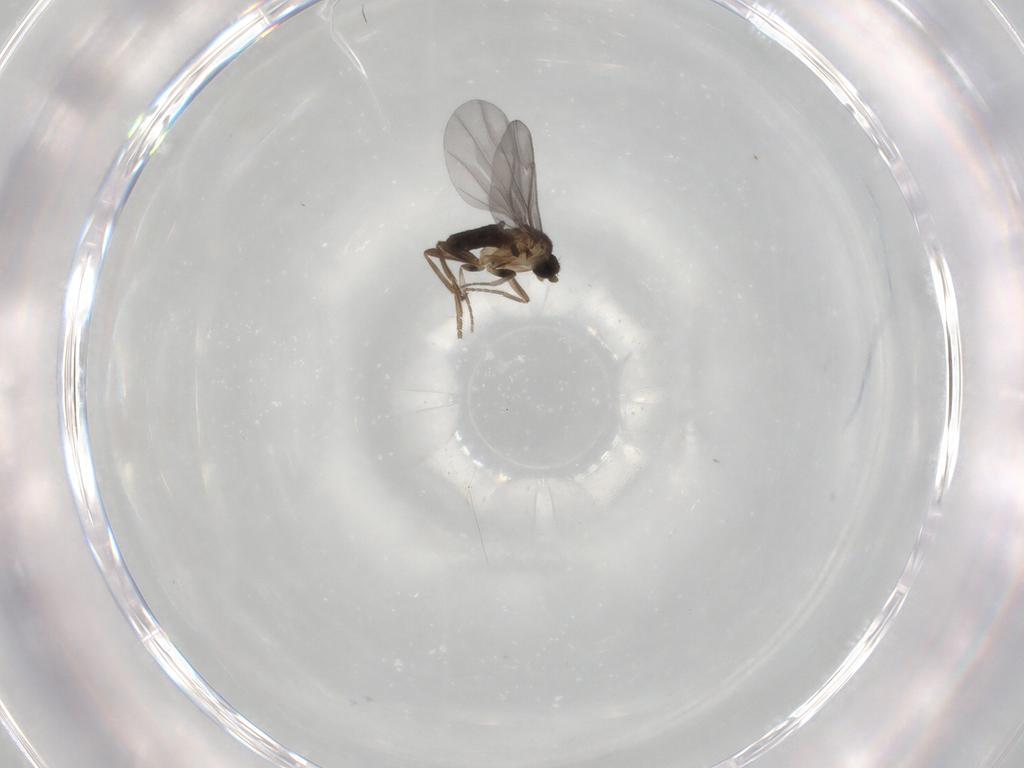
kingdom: Animalia
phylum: Arthropoda
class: Insecta
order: Diptera
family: Phoridae
